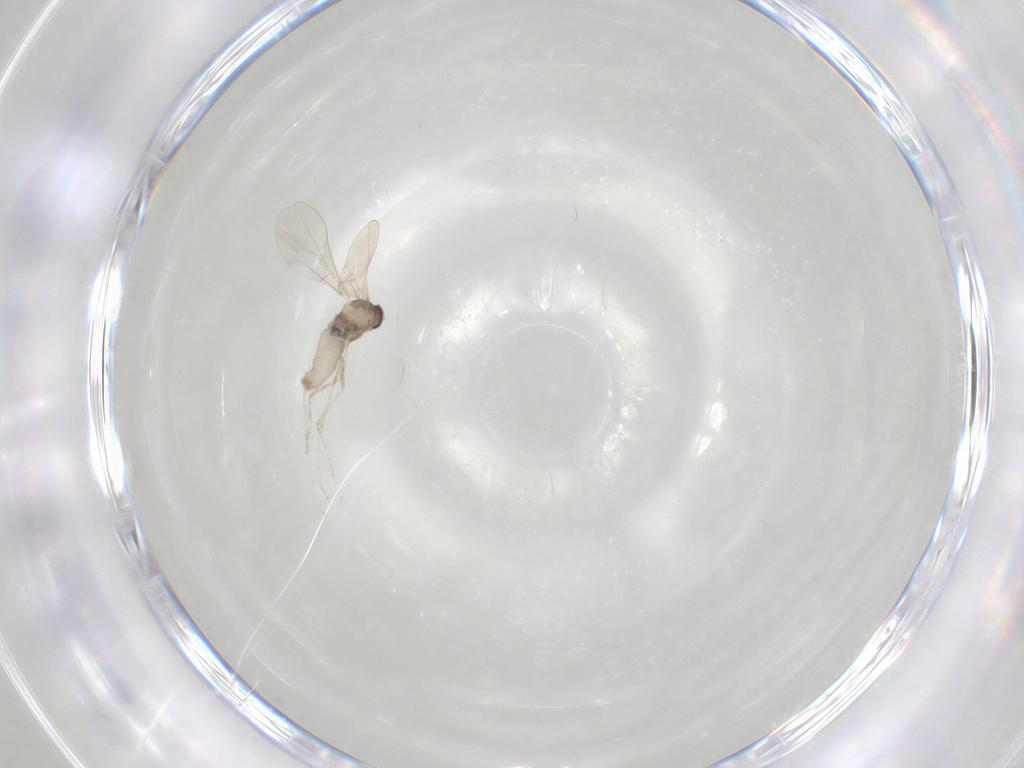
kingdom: Animalia
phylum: Arthropoda
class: Insecta
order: Diptera
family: Cecidomyiidae
